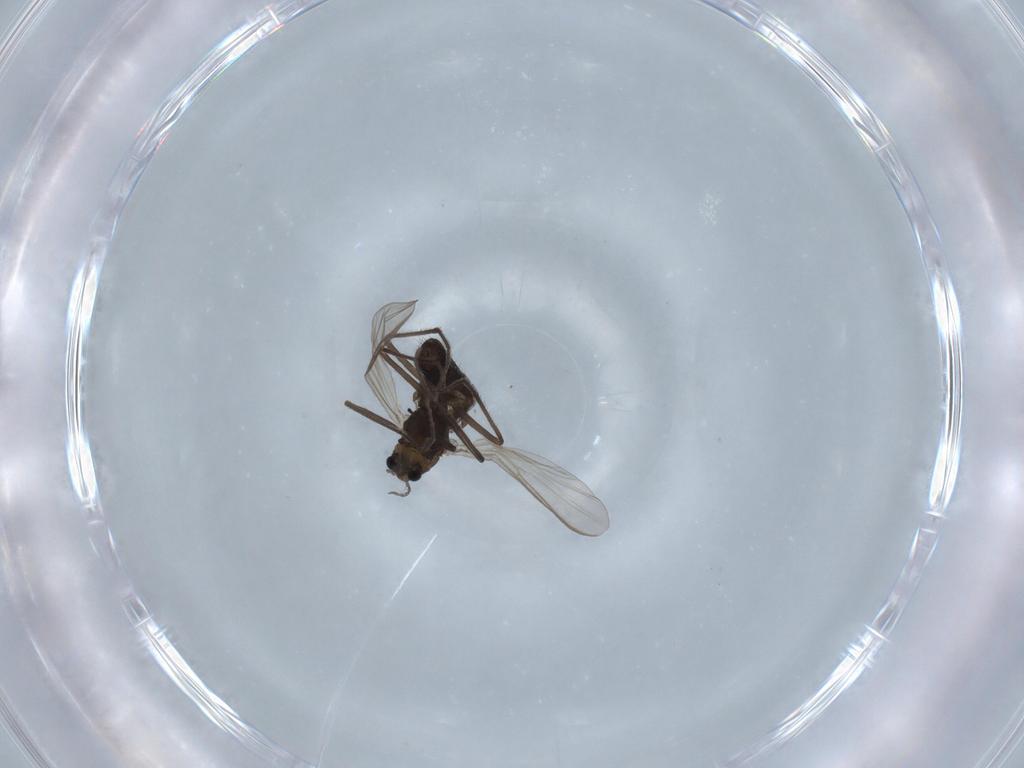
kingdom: Animalia
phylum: Arthropoda
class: Insecta
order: Diptera
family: Chironomidae
